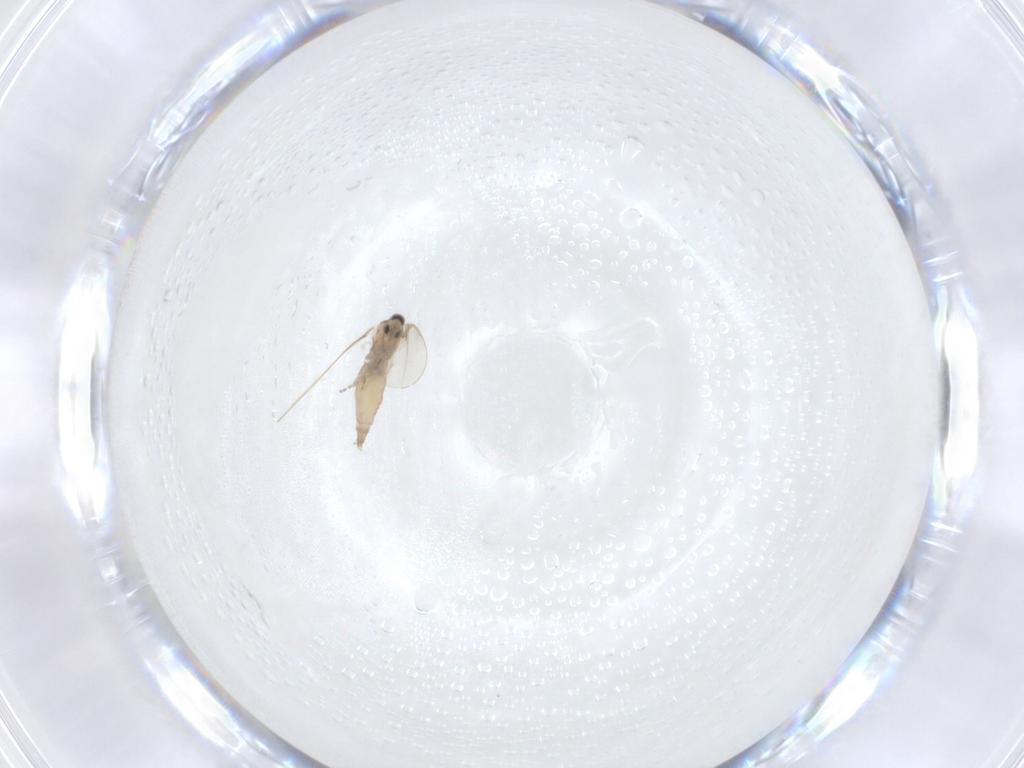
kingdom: Animalia
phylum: Arthropoda
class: Insecta
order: Diptera
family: Cecidomyiidae
